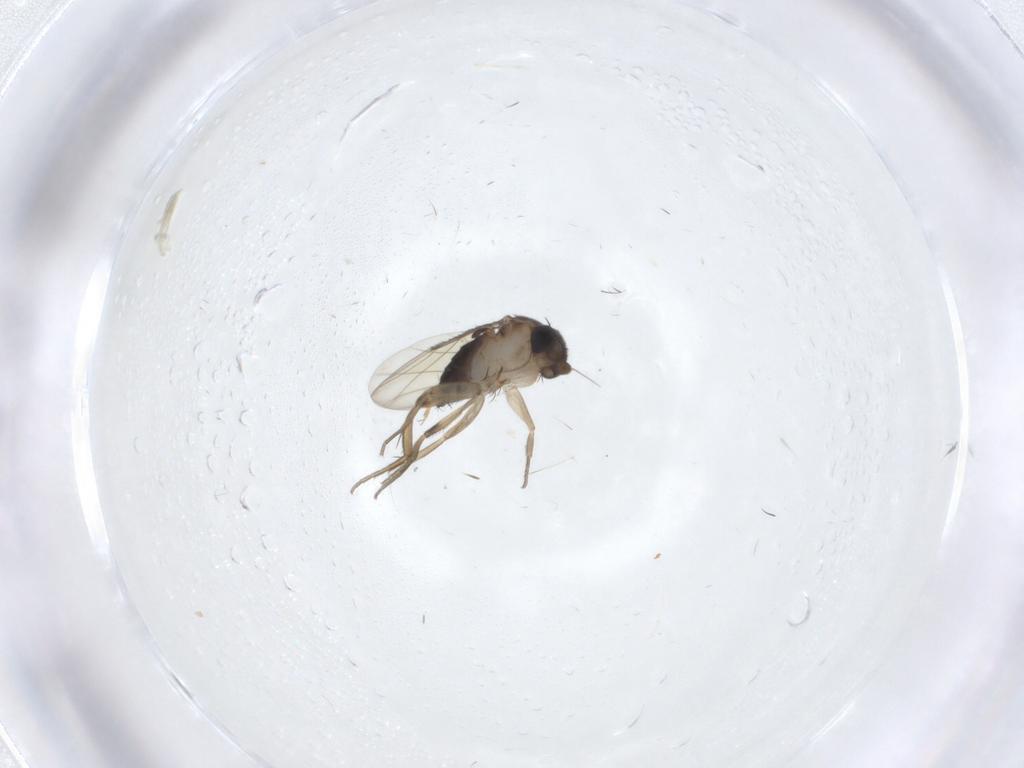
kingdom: Animalia
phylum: Arthropoda
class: Insecta
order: Diptera
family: Phoridae
